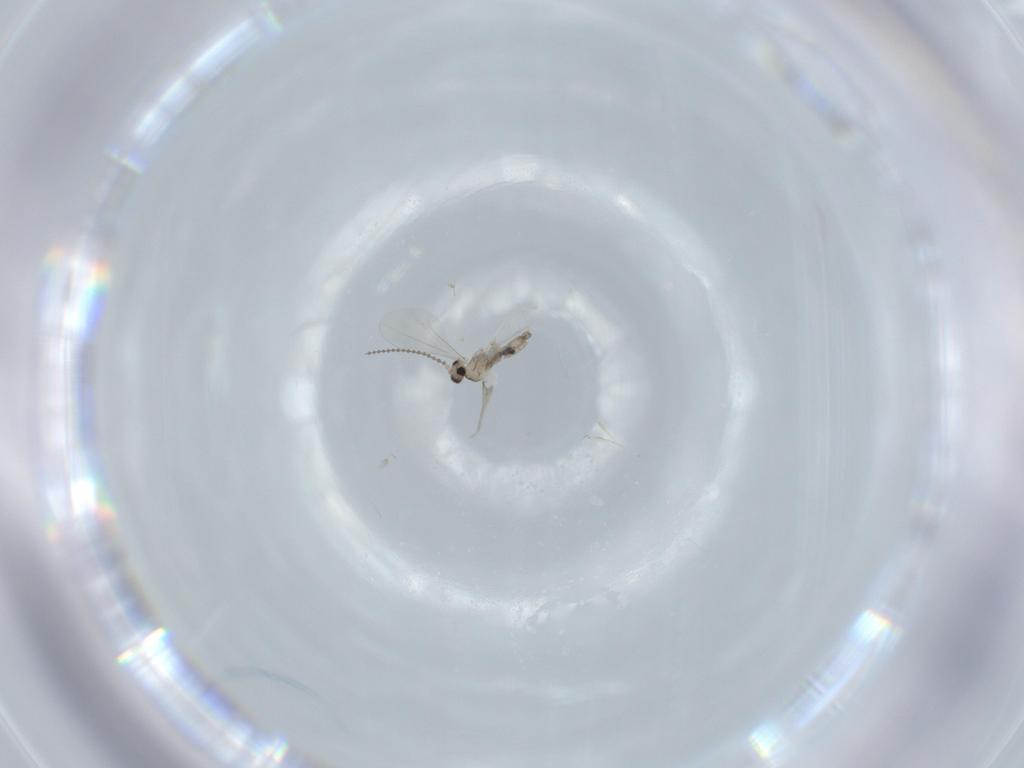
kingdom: Animalia
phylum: Arthropoda
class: Insecta
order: Diptera
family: Cecidomyiidae
